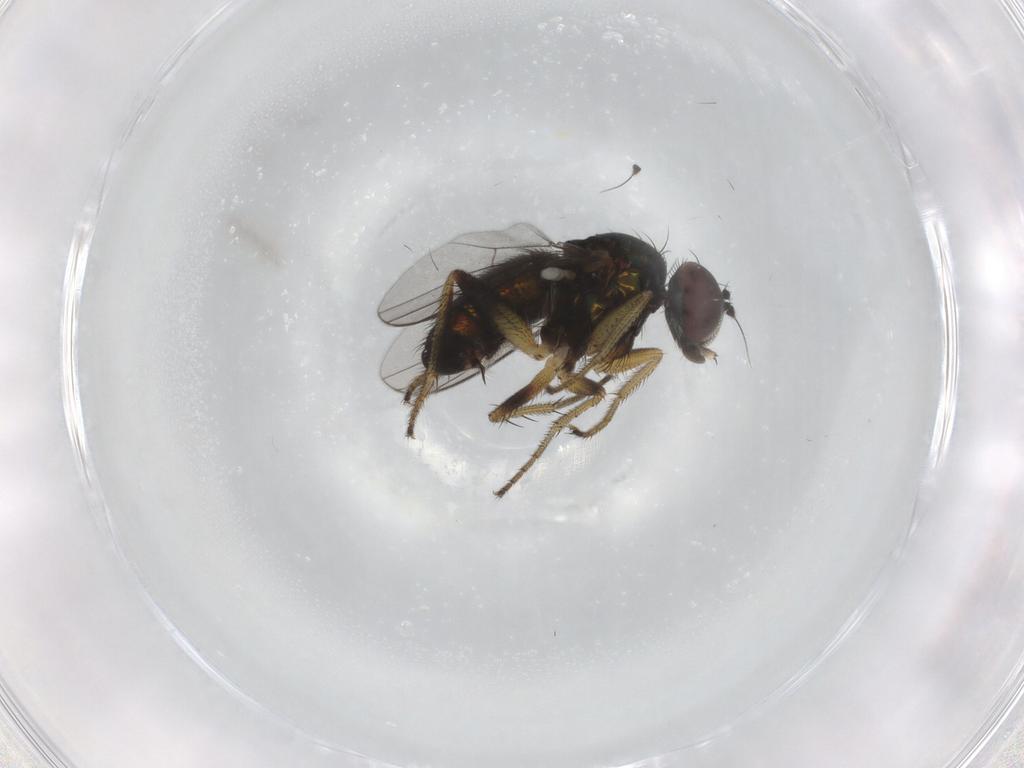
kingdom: Animalia
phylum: Arthropoda
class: Insecta
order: Diptera
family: Dolichopodidae
